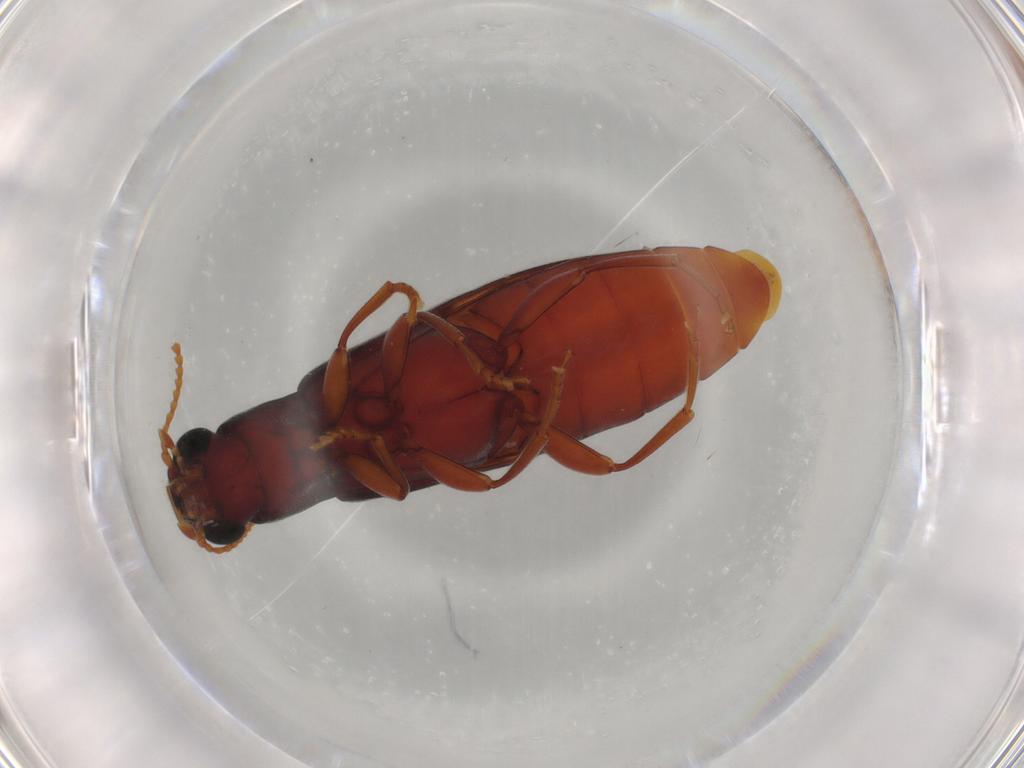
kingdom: Animalia
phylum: Arthropoda
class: Insecta
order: Coleoptera
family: Mycteridae
